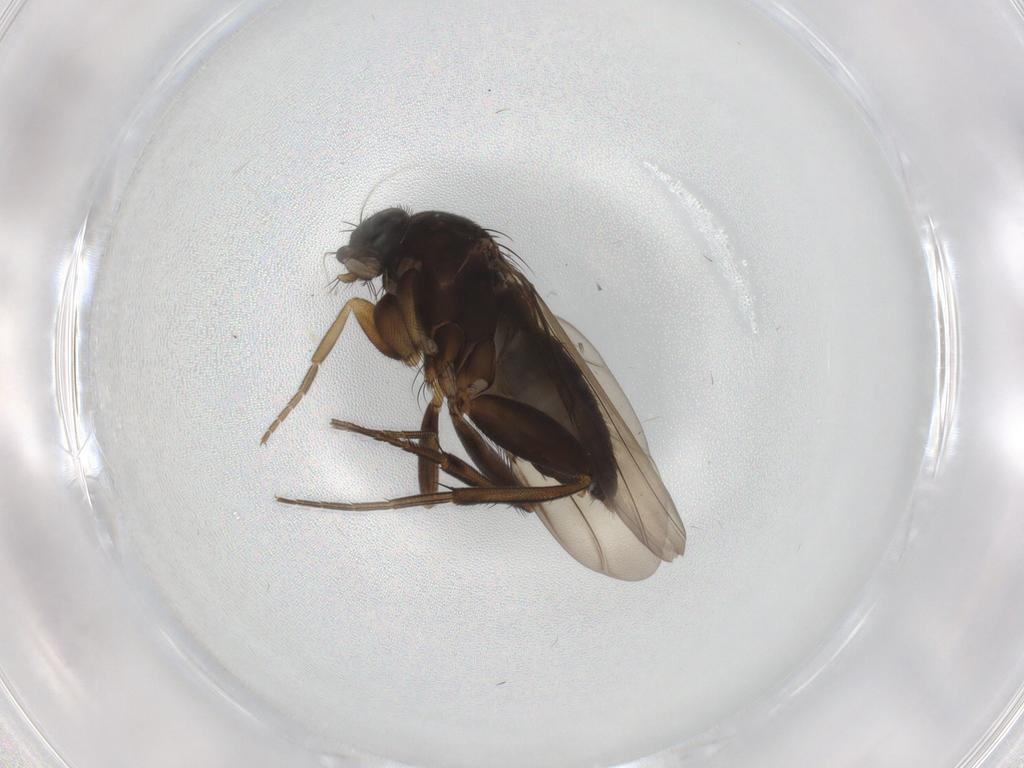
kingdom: Animalia
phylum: Arthropoda
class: Insecta
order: Diptera
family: Phoridae
